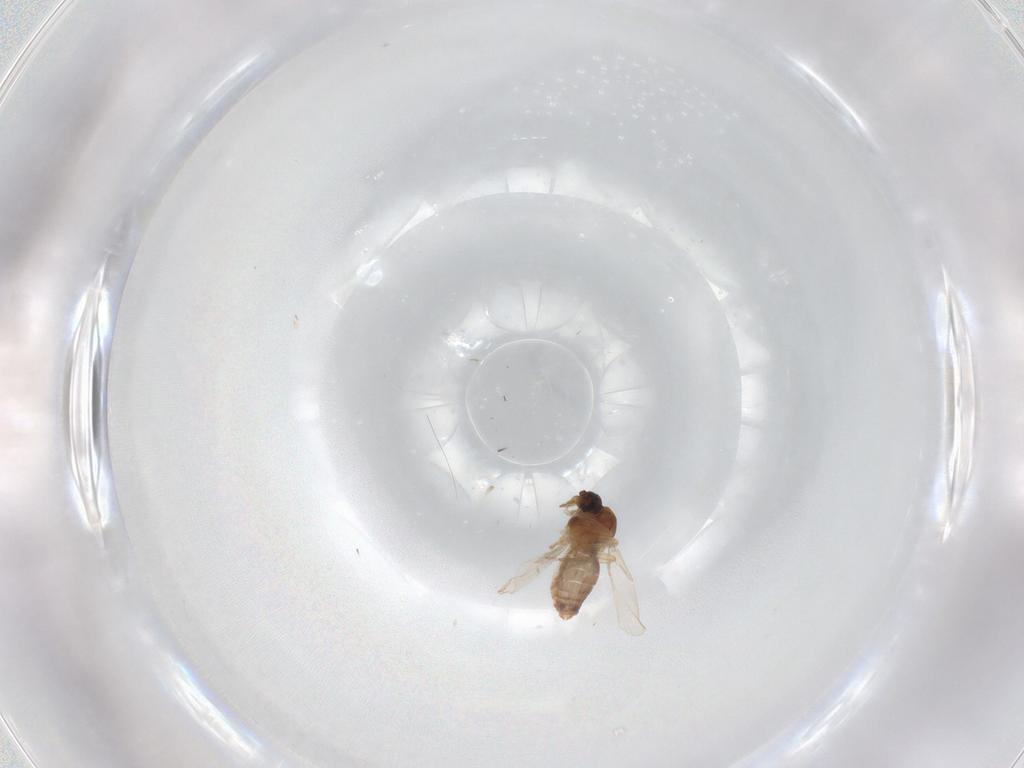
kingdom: Animalia
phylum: Arthropoda
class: Insecta
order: Diptera
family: Ceratopogonidae
